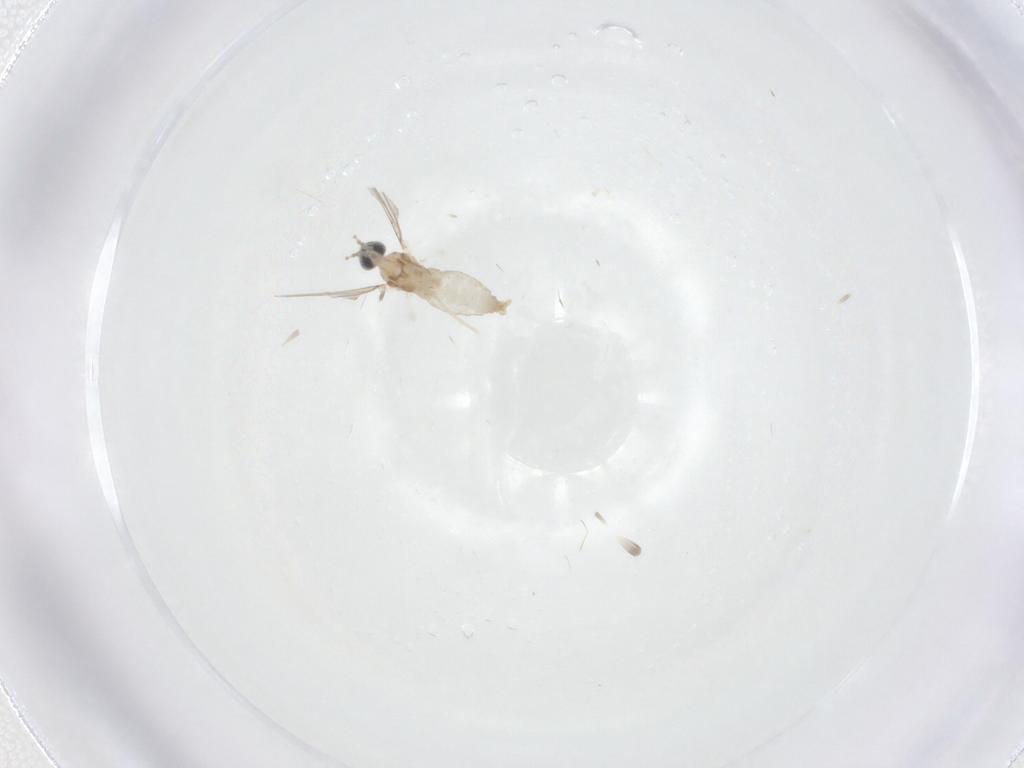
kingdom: Animalia
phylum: Arthropoda
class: Insecta
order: Diptera
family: Cecidomyiidae
